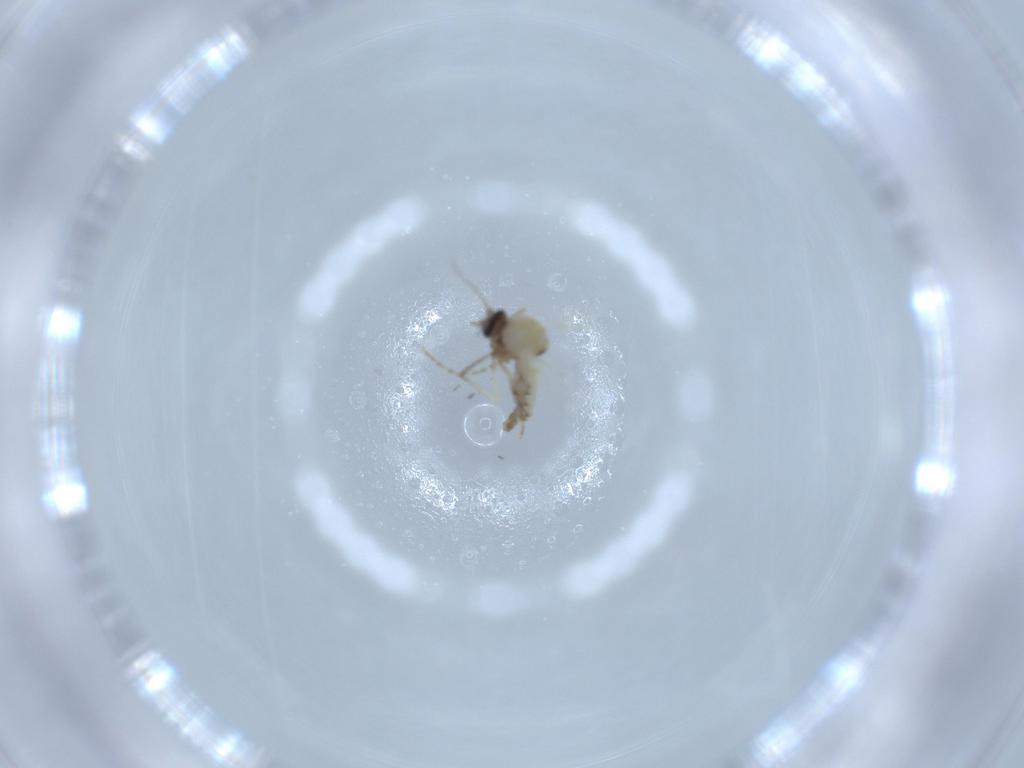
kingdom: Animalia
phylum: Arthropoda
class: Insecta
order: Diptera
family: Ceratopogonidae
